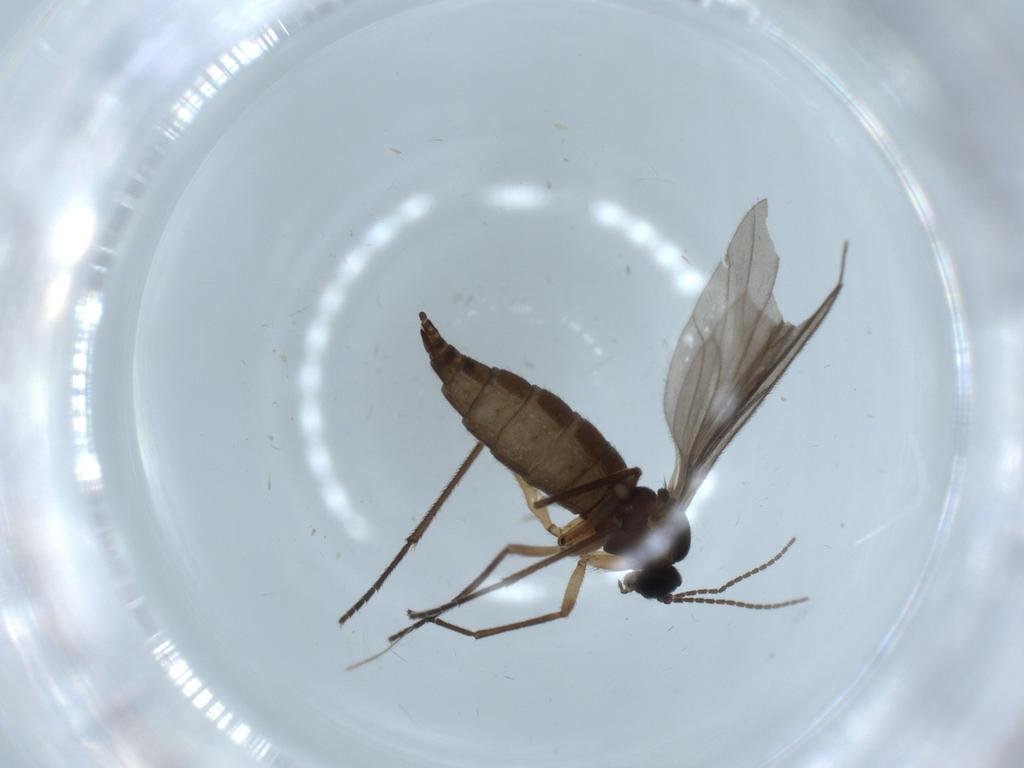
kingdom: Animalia
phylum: Arthropoda
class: Insecta
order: Diptera
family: Sciaridae
